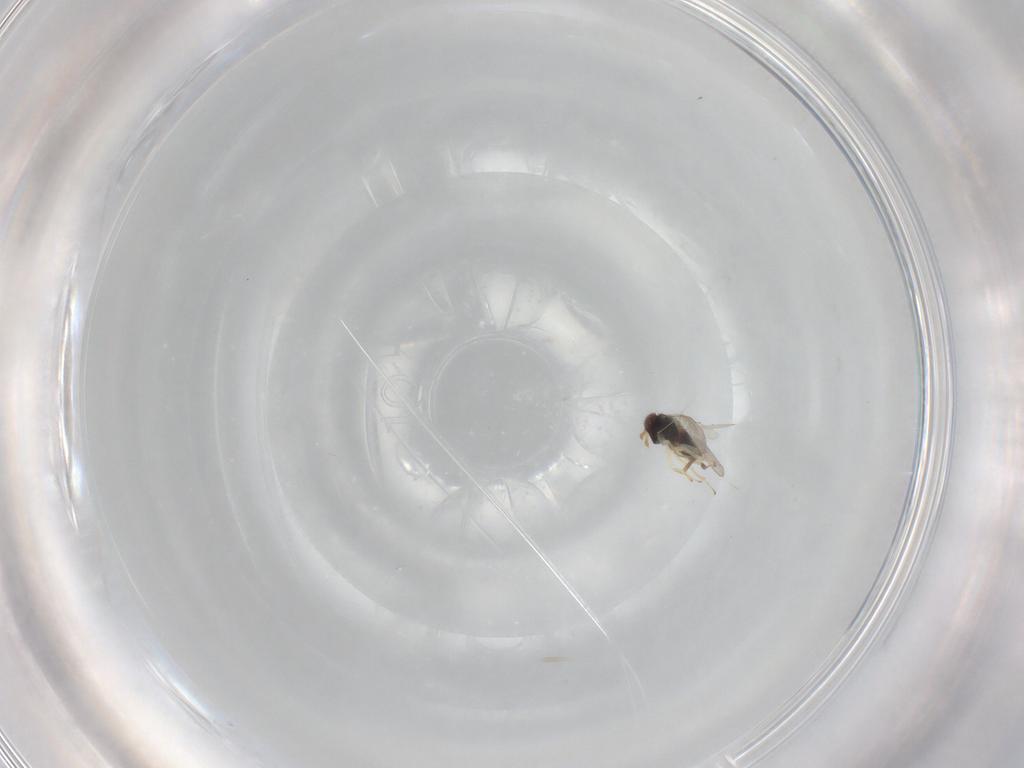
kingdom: Animalia
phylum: Arthropoda
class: Insecta
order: Hymenoptera
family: Aphelinidae
